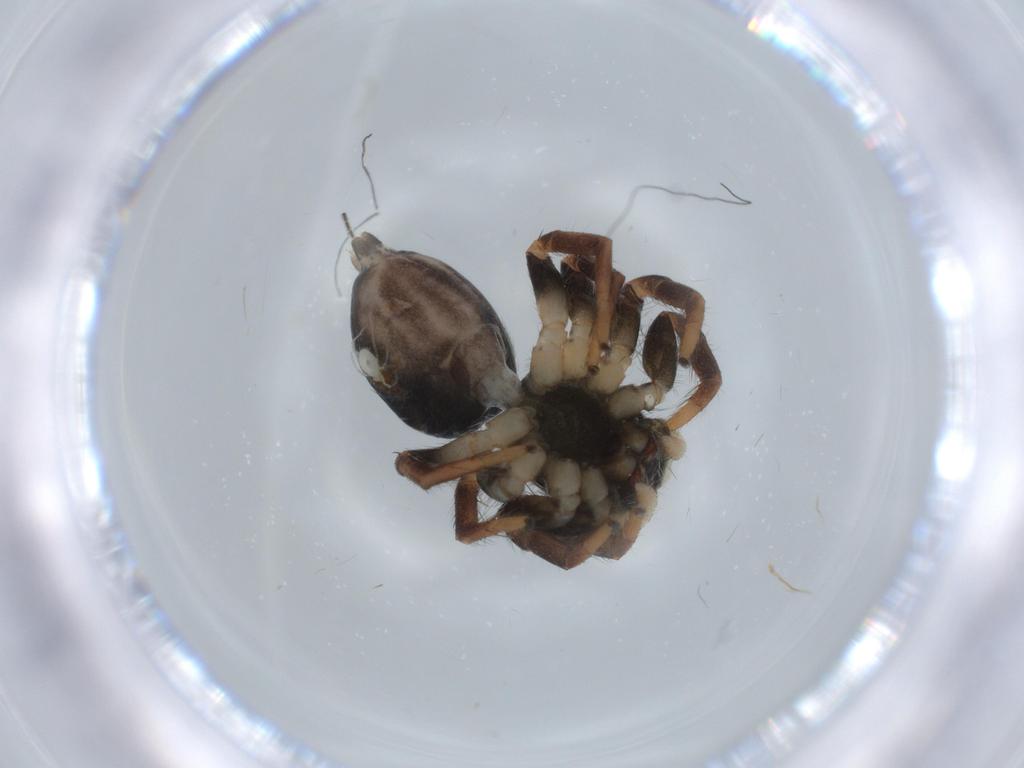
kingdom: Animalia
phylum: Arthropoda
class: Arachnida
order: Araneae
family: Salticidae
